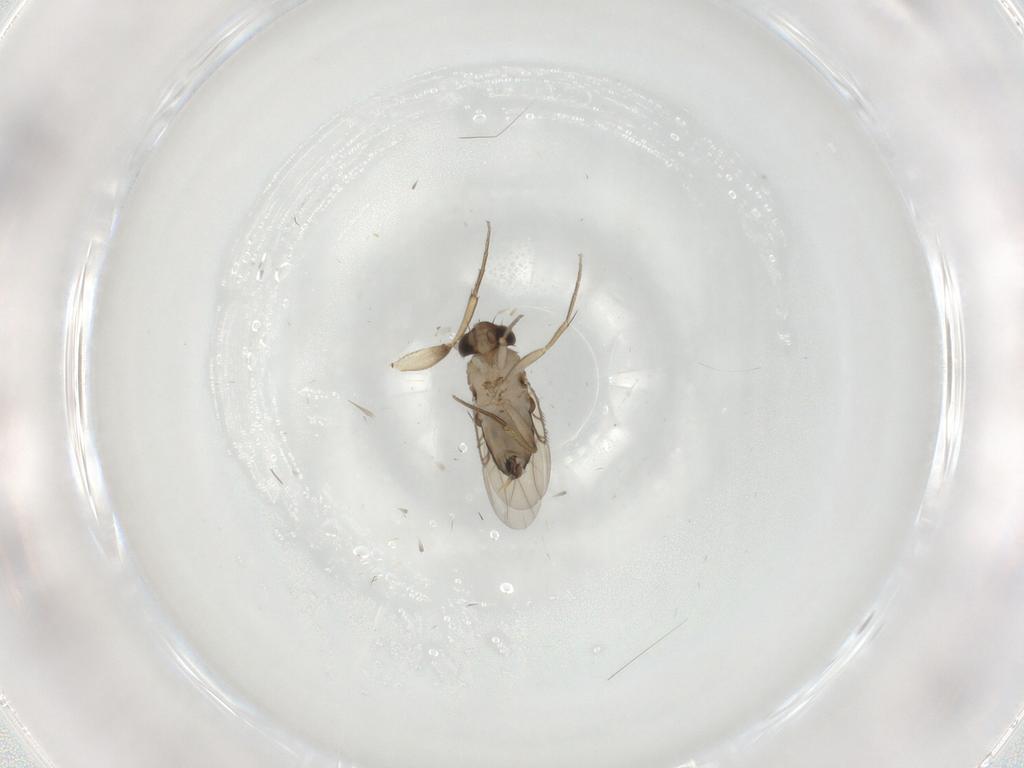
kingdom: Animalia
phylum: Arthropoda
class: Insecta
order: Diptera
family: Phoridae
